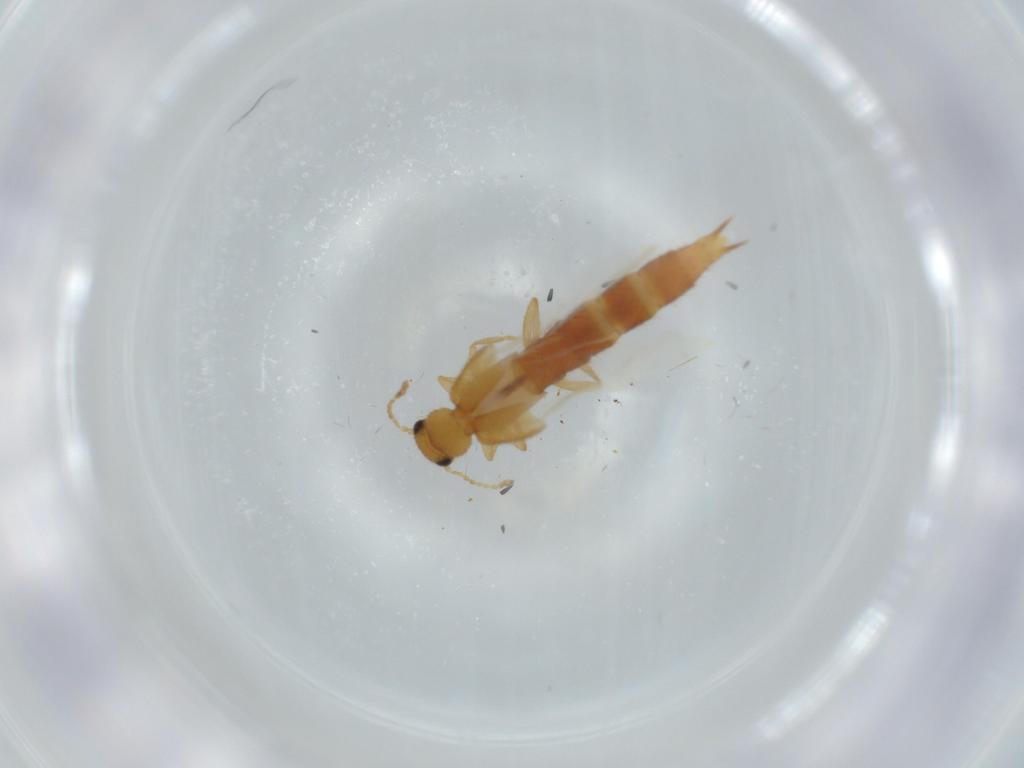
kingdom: Animalia
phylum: Arthropoda
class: Insecta
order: Coleoptera
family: Staphylinidae
